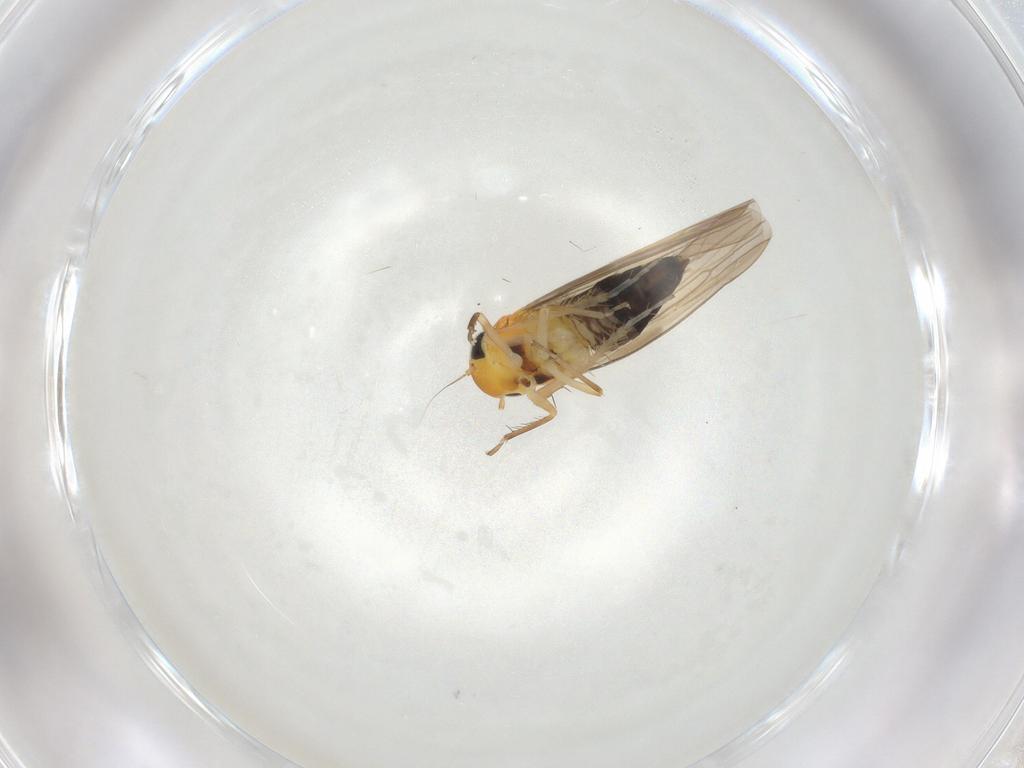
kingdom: Animalia
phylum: Arthropoda
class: Insecta
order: Hemiptera
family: Cicadellidae
